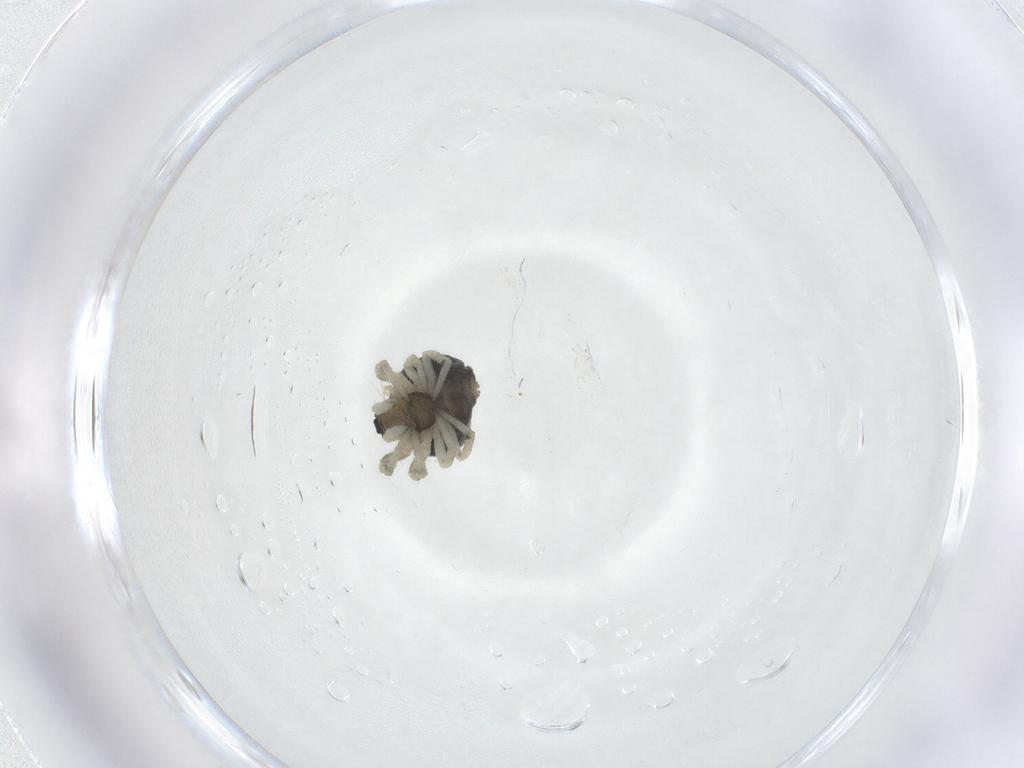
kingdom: Animalia
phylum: Arthropoda
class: Arachnida
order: Araneae
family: Theridiidae
